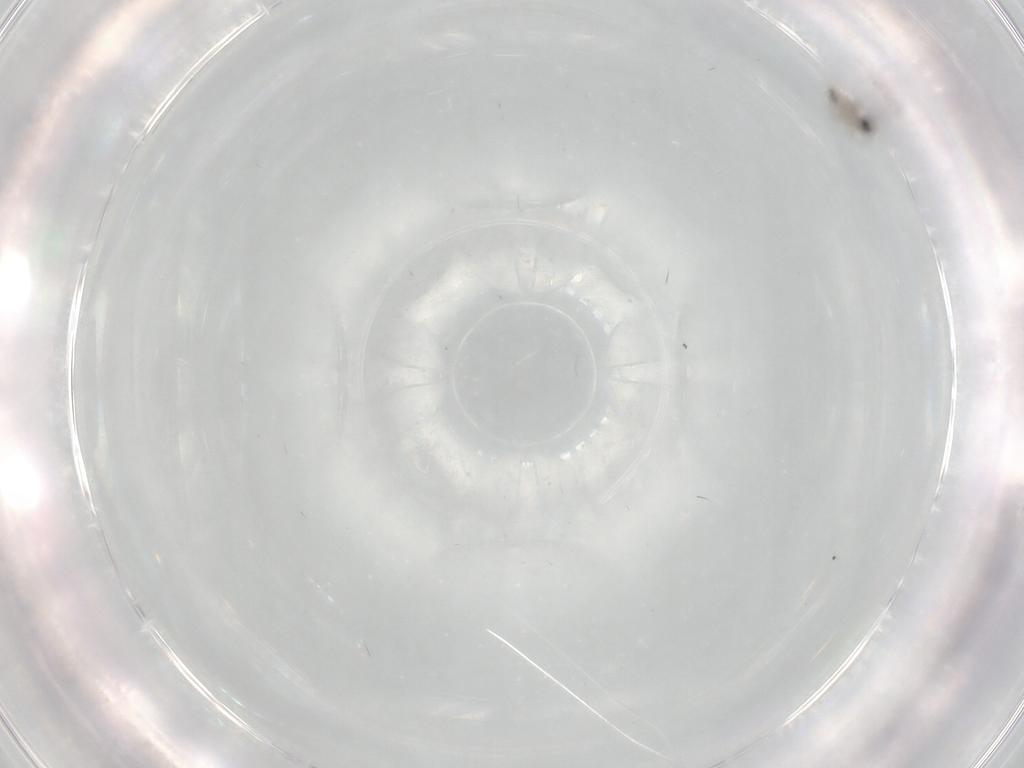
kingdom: Animalia
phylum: Arthropoda
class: Insecta
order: Diptera
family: Cecidomyiidae
